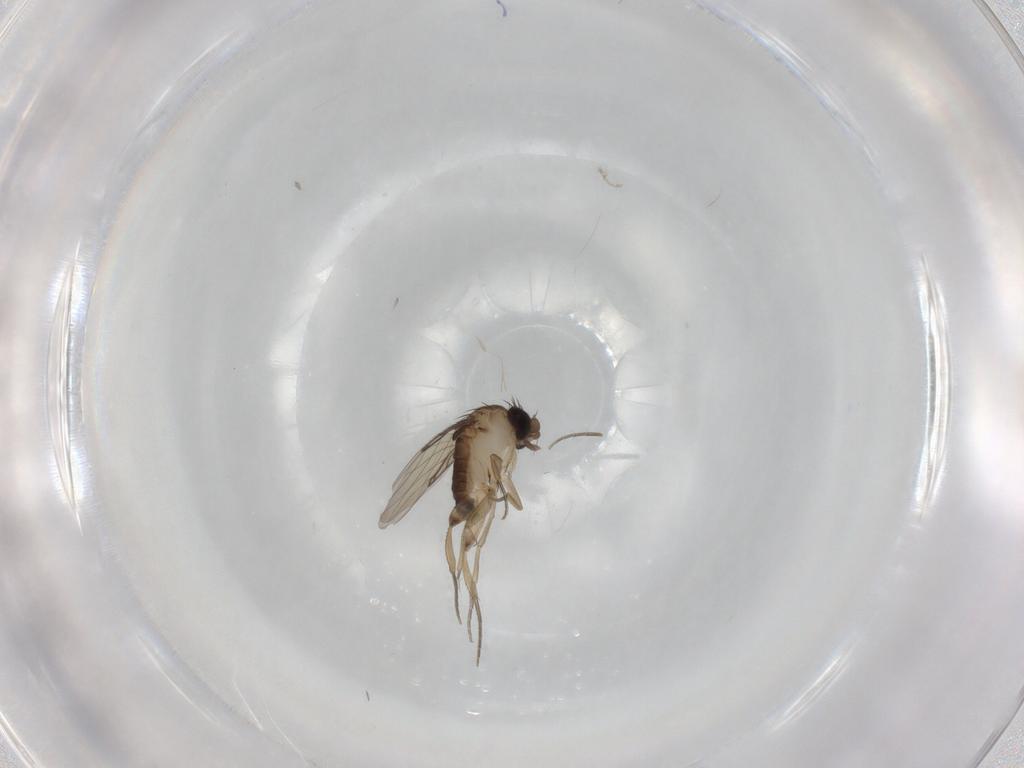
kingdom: Animalia
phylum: Arthropoda
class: Insecta
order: Diptera
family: Phoridae
